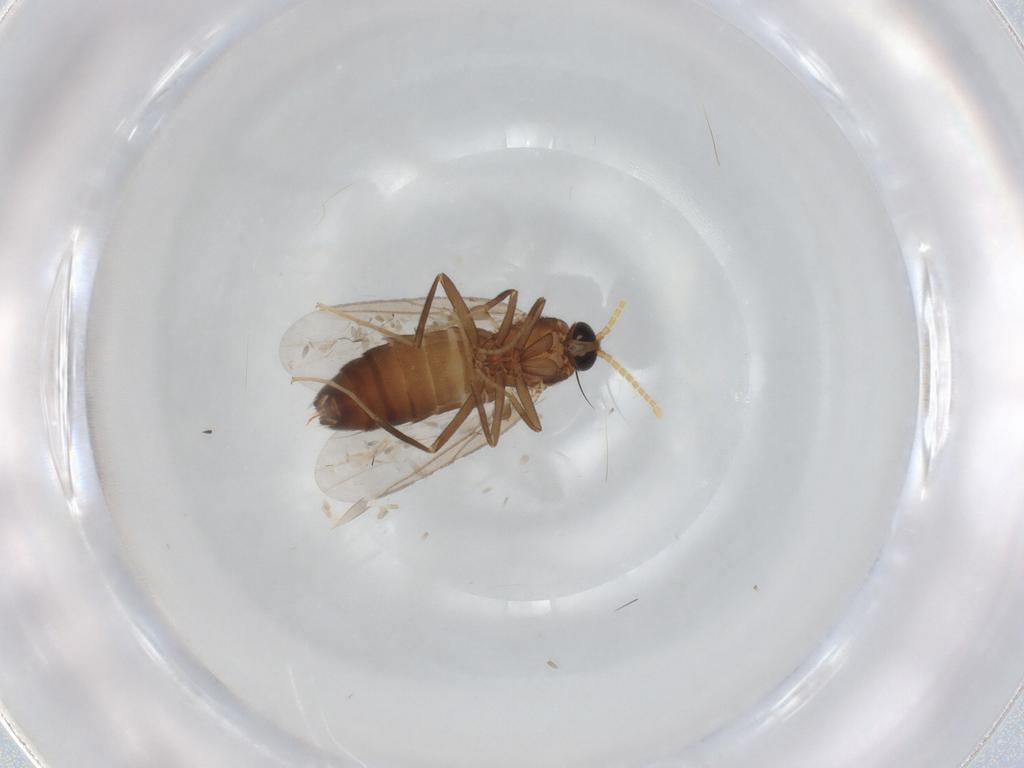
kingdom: Animalia
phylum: Arthropoda
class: Insecta
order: Diptera
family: Scatopsidae
